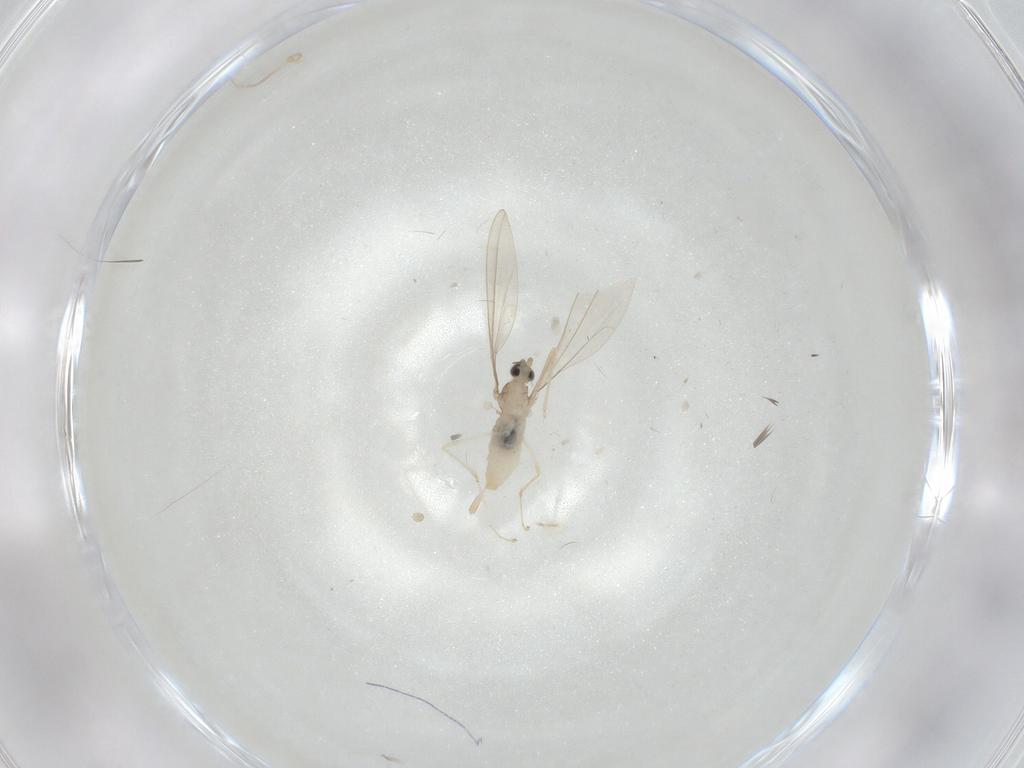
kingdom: Animalia
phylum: Arthropoda
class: Insecta
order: Diptera
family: Cecidomyiidae
